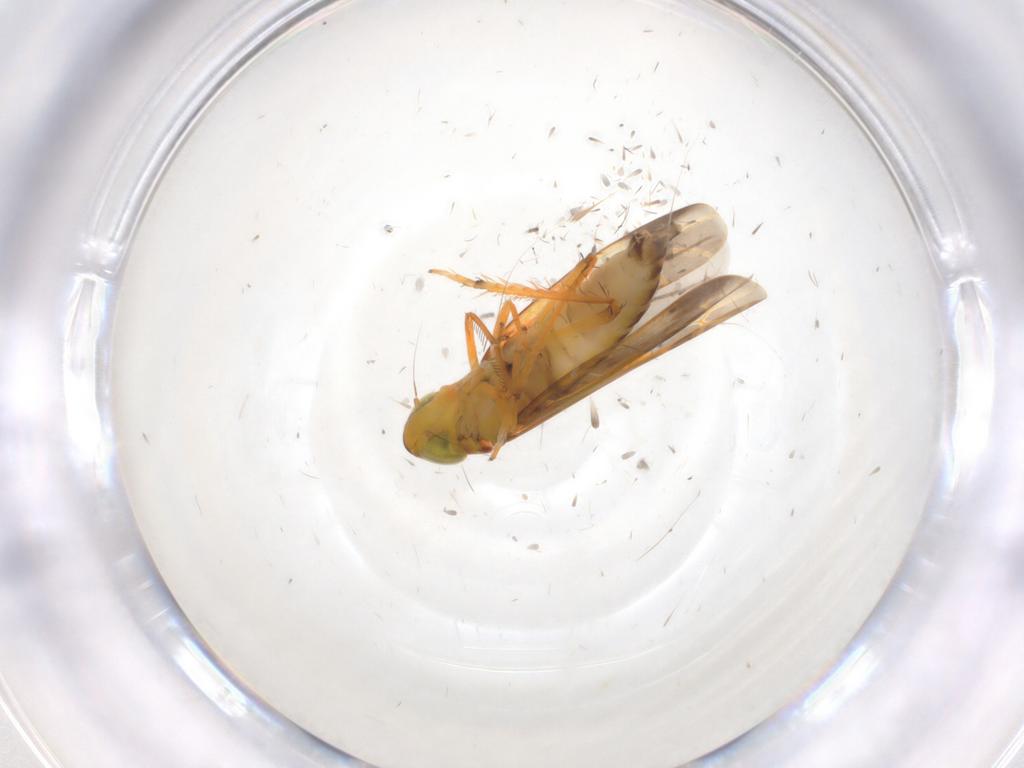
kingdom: Animalia
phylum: Arthropoda
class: Insecta
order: Hemiptera
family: Cicadellidae
